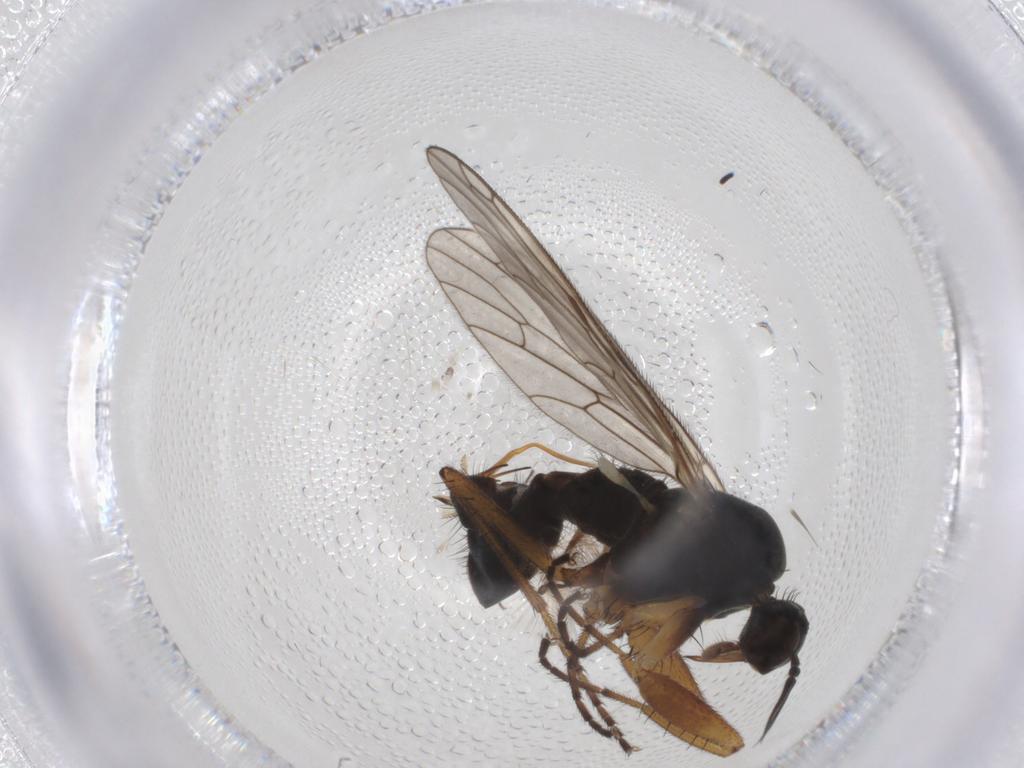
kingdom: Animalia
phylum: Arthropoda
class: Insecta
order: Diptera
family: Empididae
